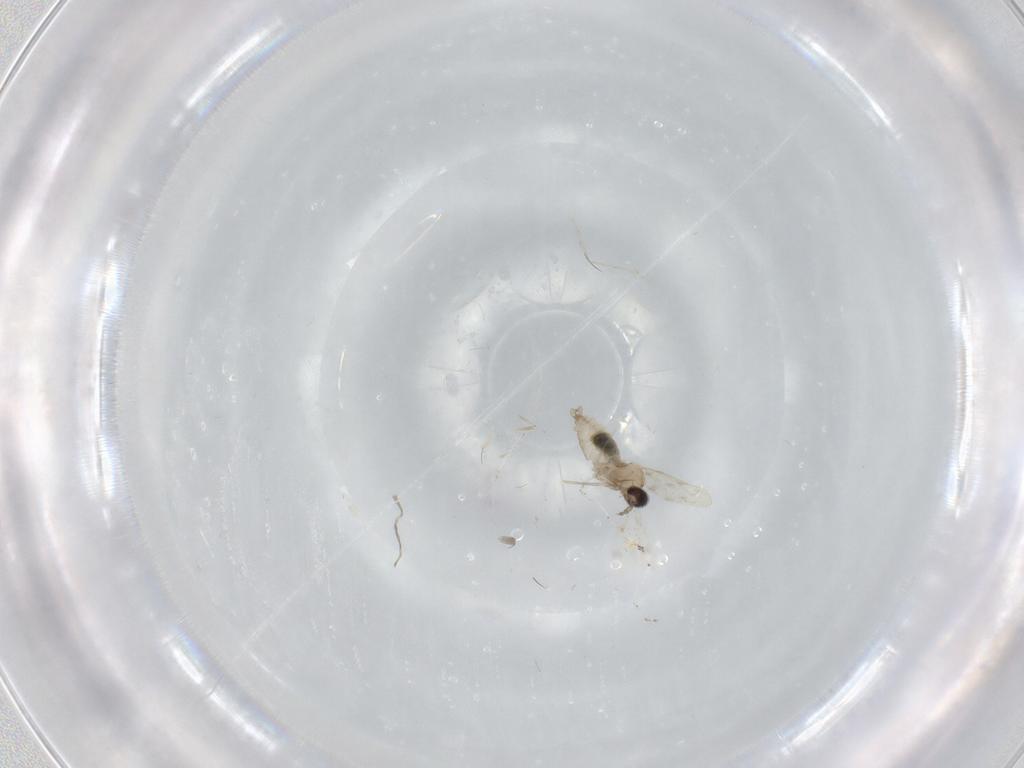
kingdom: Animalia
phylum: Arthropoda
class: Insecta
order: Diptera
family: Cecidomyiidae
